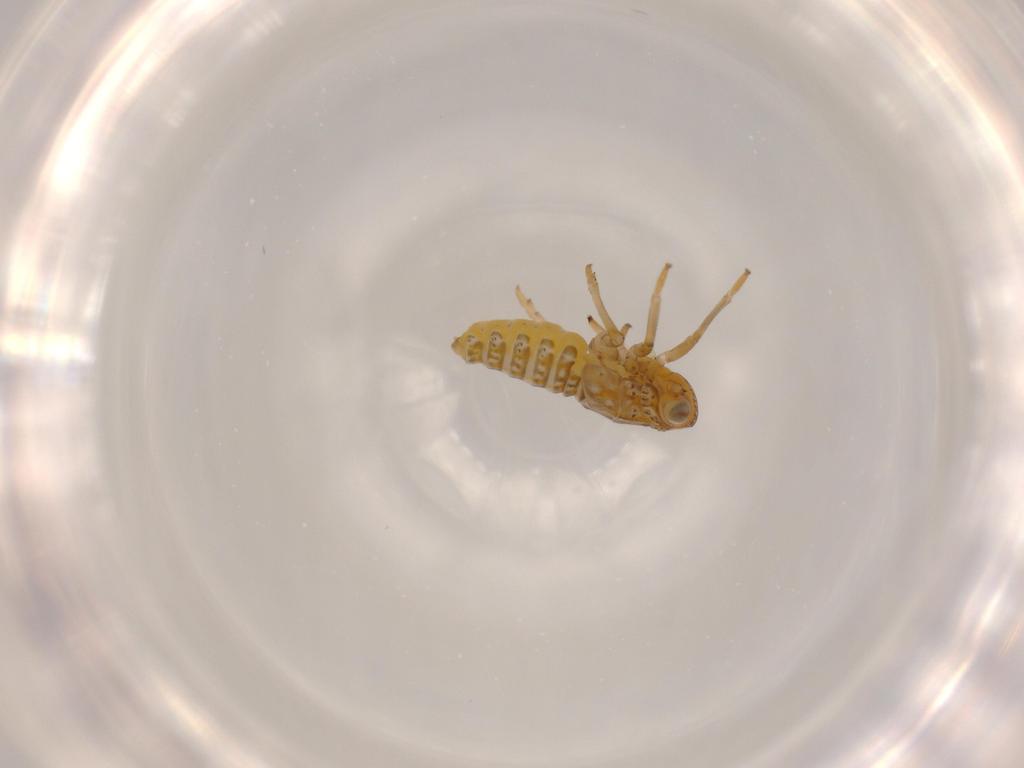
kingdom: Animalia
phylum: Arthropoda
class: Insecta
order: Hemiptera
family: Issidae
